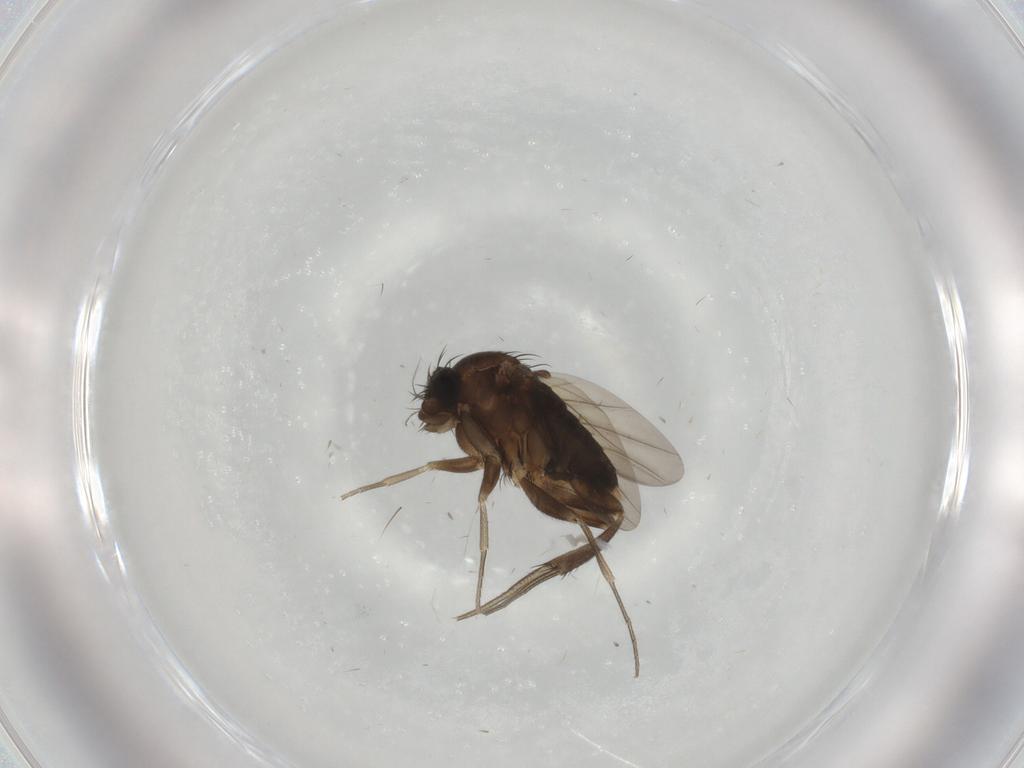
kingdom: Animalia
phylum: Arthropoda
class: Insecta
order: Diptera
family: Phoridae
